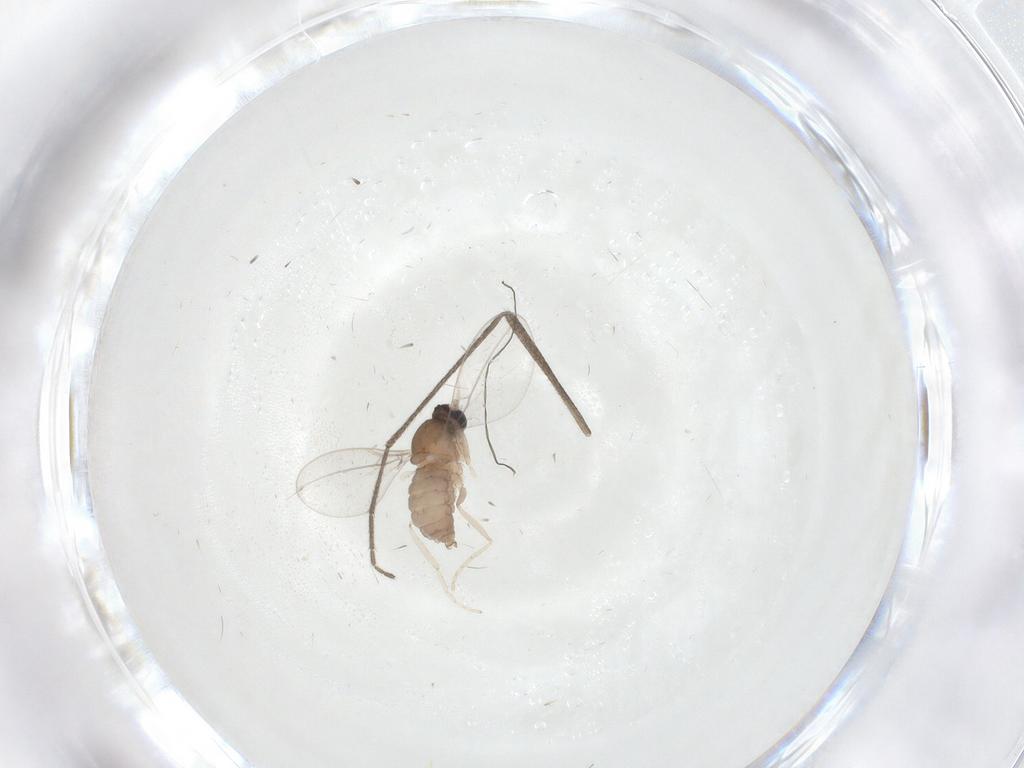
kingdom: Animalia
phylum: Arthropoda
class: Insecta
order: Diptera
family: Cecidomyiidae
